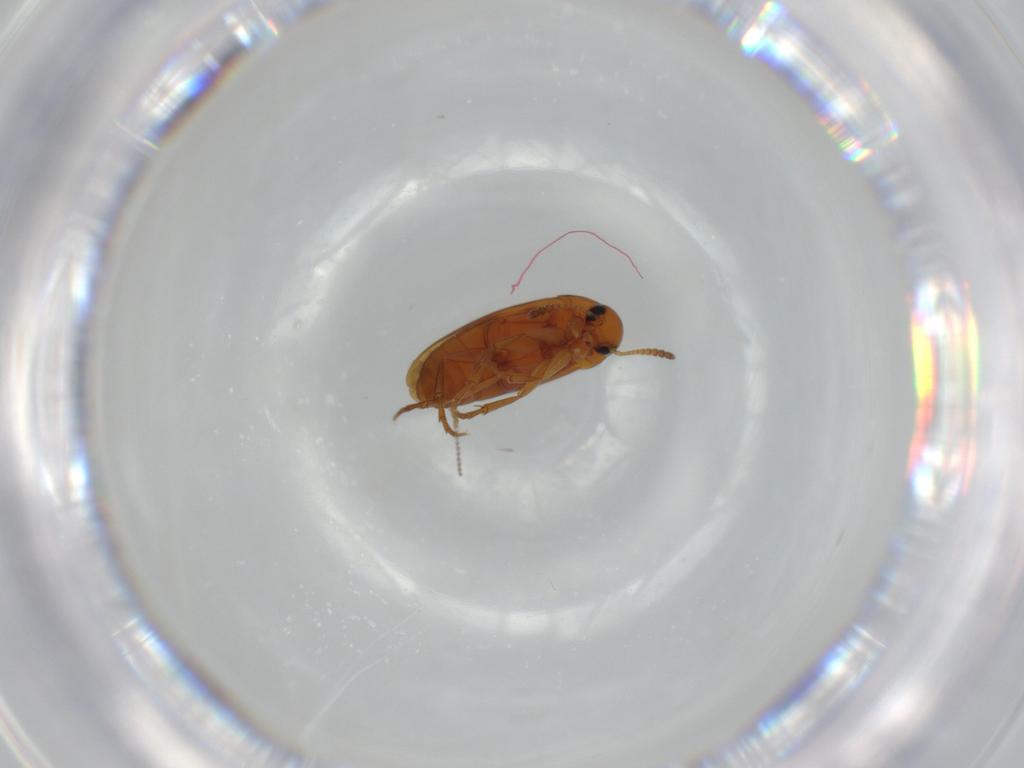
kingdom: Animalia
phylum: Arthropoda
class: Insecta
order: Coleoptera
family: Scraptiidae
